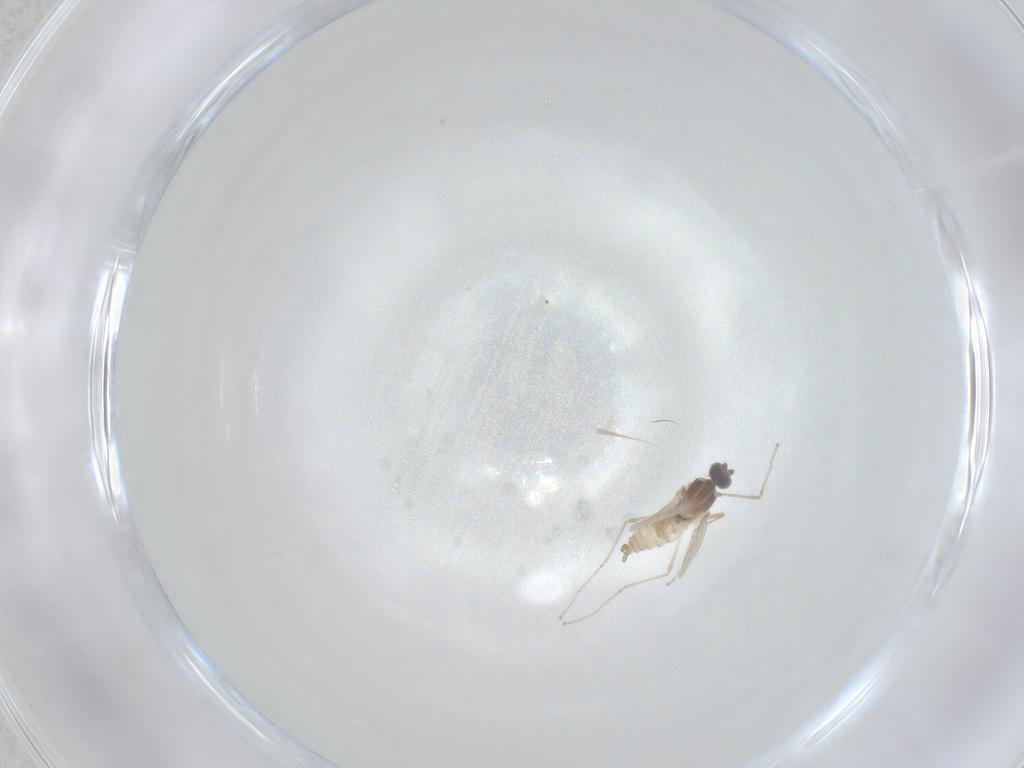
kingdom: Animalia
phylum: Arthropoda
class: Insecta
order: Diptera
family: Cecidomyiidae
